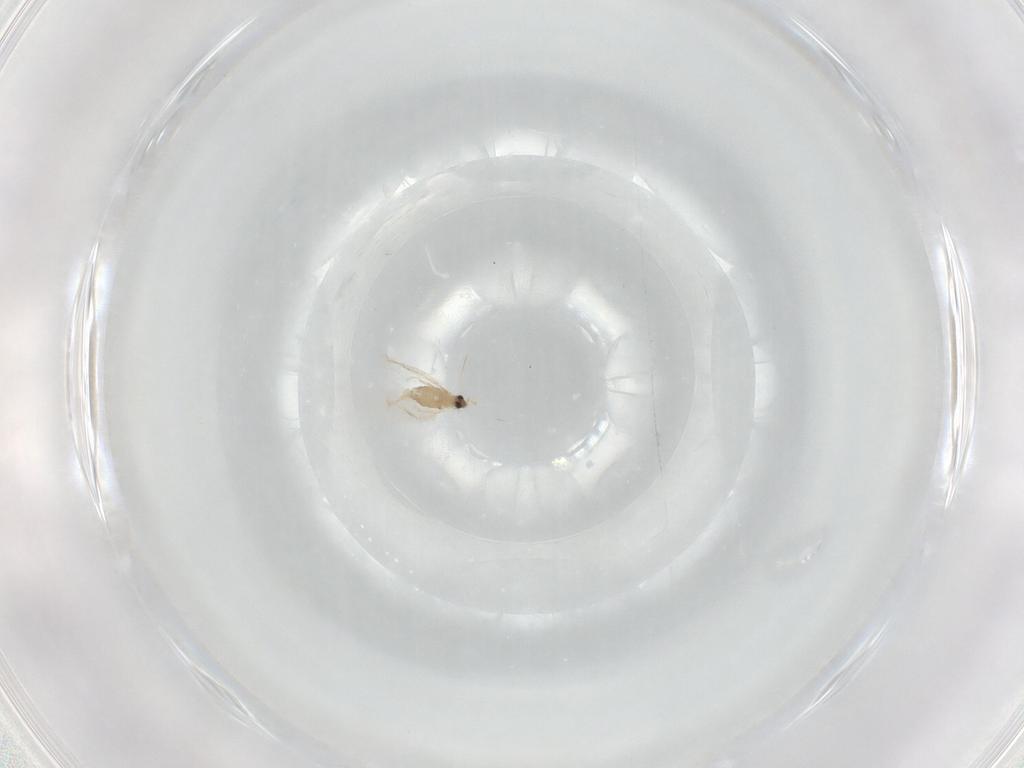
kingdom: Animalia
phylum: Arthropoda
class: Insecta
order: Diptera
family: Cecidomyiidae
